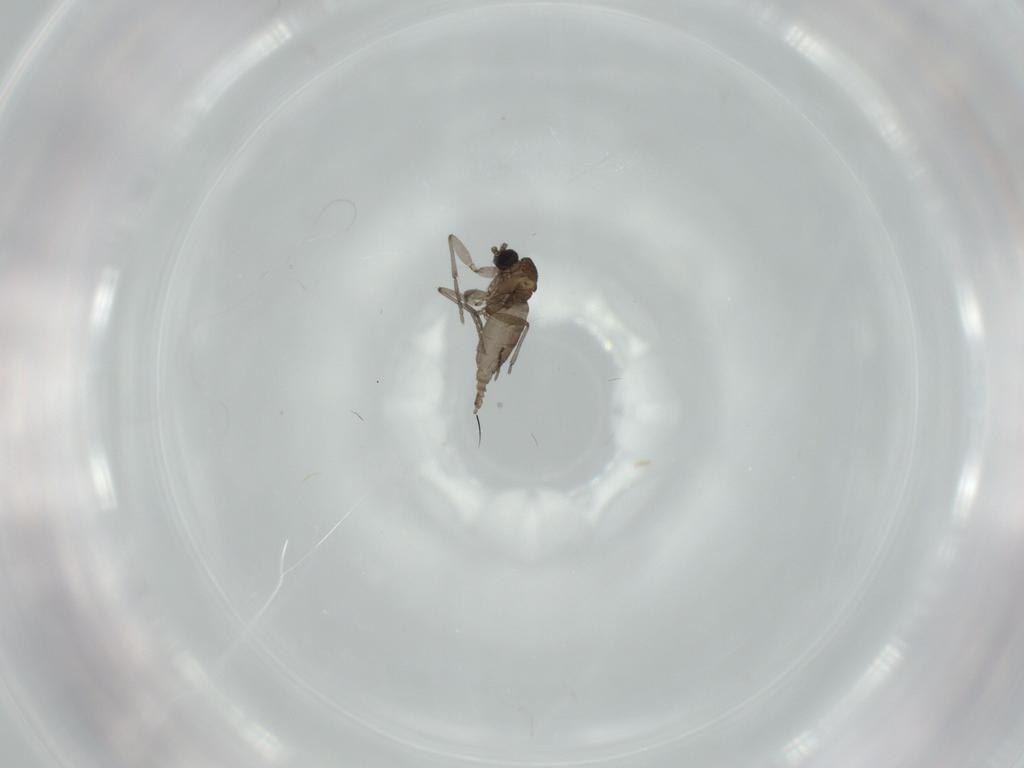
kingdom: Animalia
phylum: Arthropoda
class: Insecta
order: Diptera
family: Sciaridae
